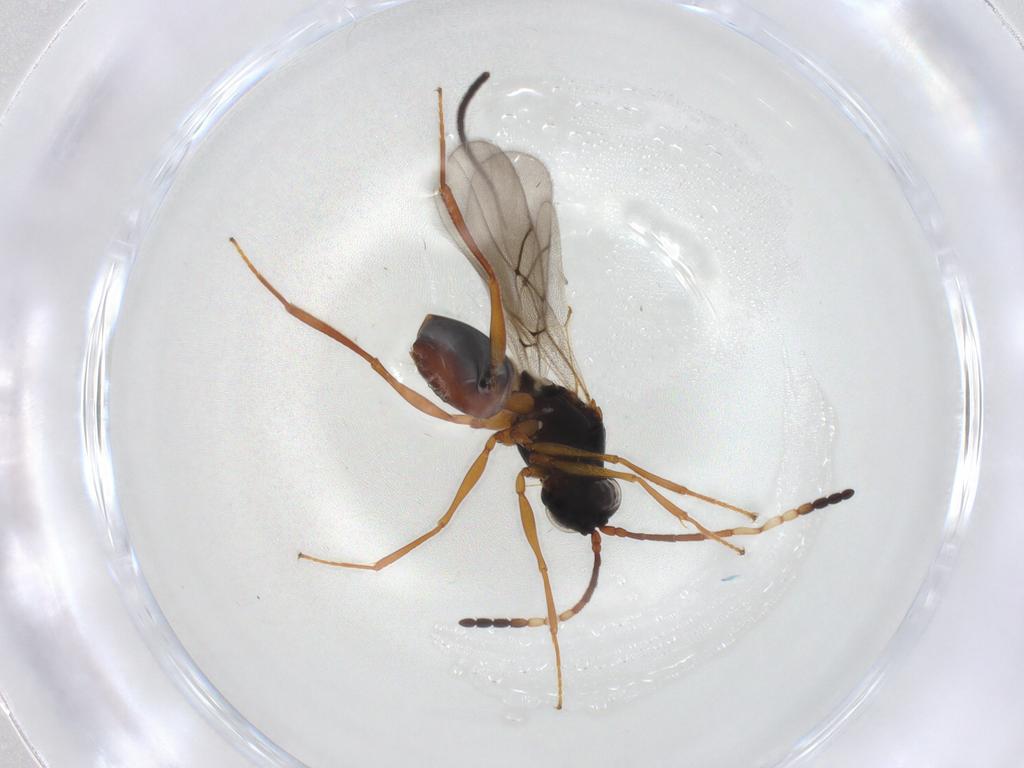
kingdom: Animalia
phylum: Arthropoda
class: Insecta
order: Hymenoptera
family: Figitidae
